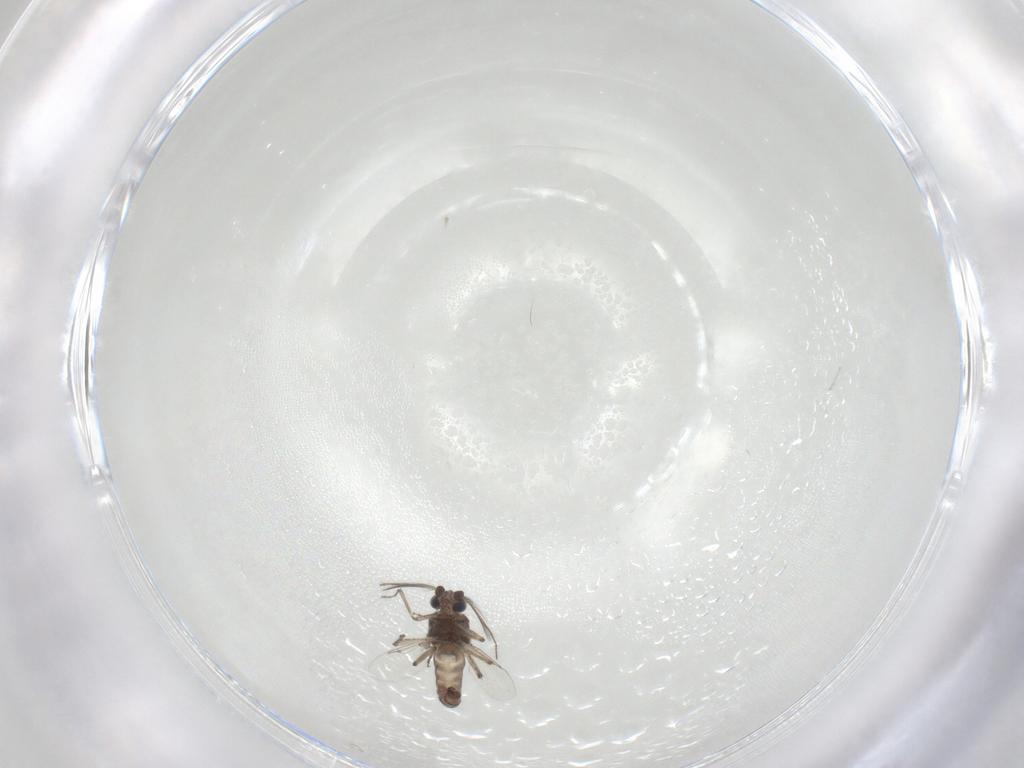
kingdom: Animalia
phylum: Arthropoda
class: Insecta
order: Diptera
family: Ceratopogonidae
